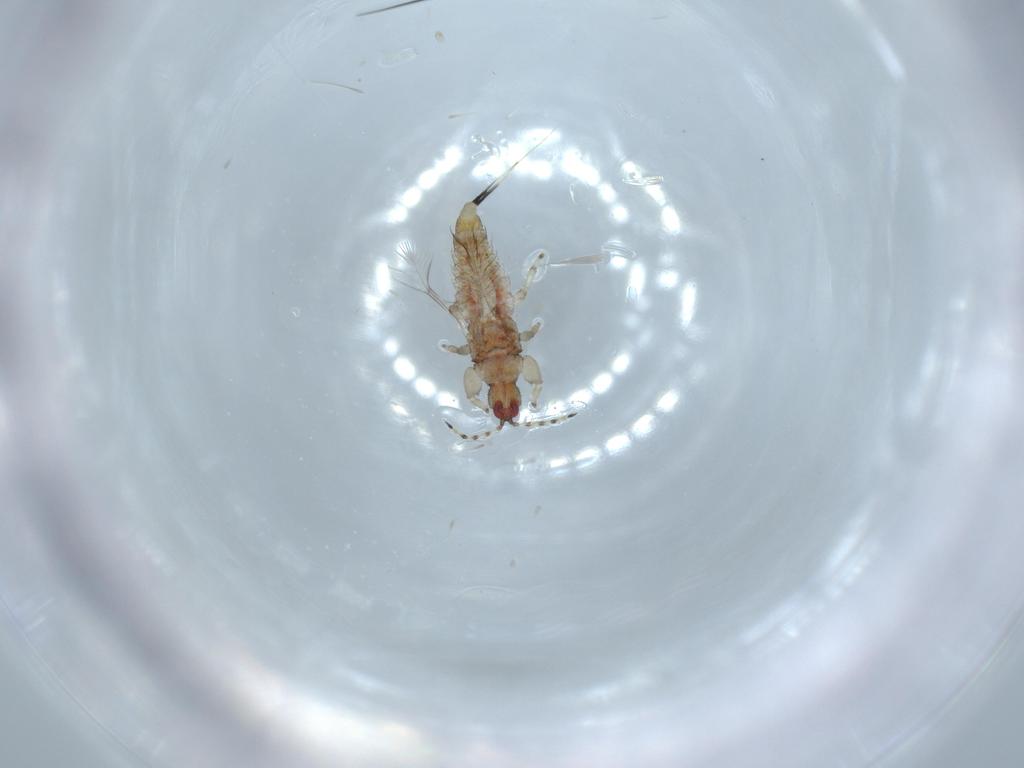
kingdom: Animalia
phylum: Arthropoda
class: Insecta
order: Thysanoptera
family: Phlaeothripidae
